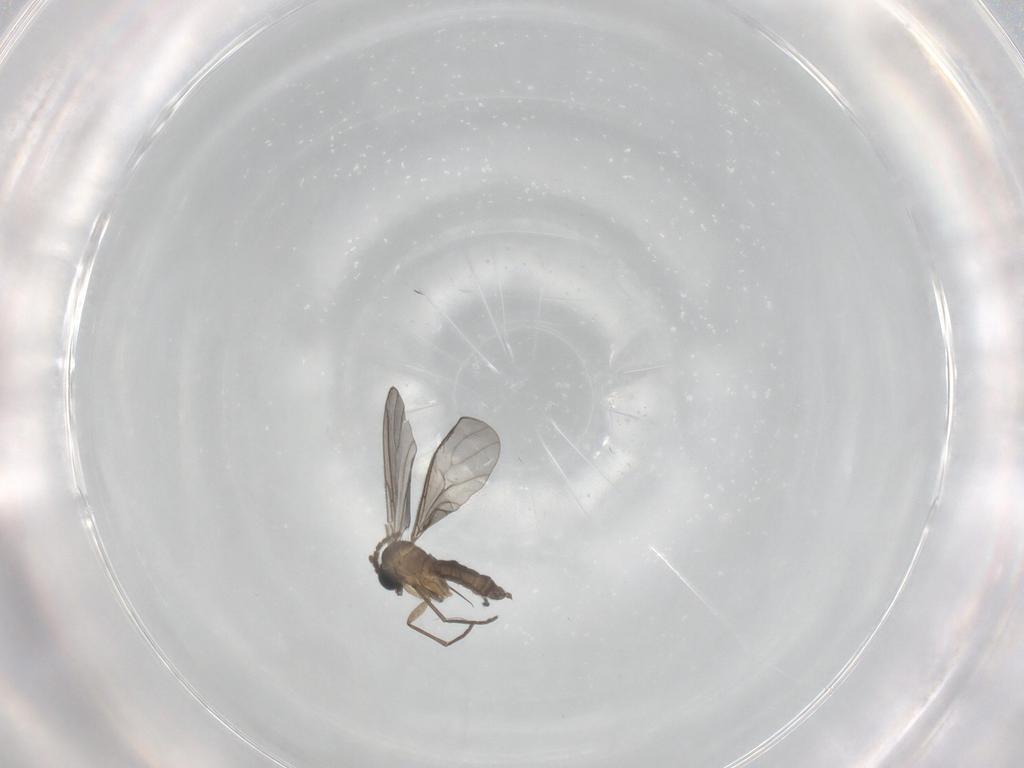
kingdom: Animalia
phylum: Arthropoda
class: Insecta
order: Diptera
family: Sciaridae
